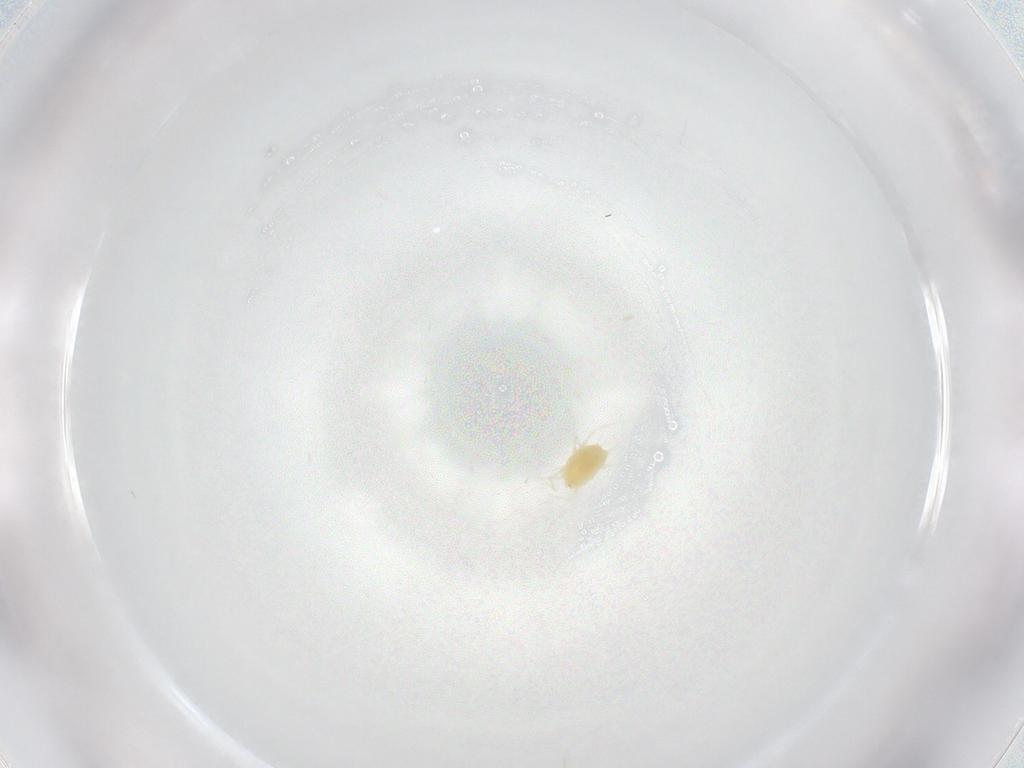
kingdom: Animalia
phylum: Arthropoda
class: Arachnida
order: Trombidiformes
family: Tetranychidae
